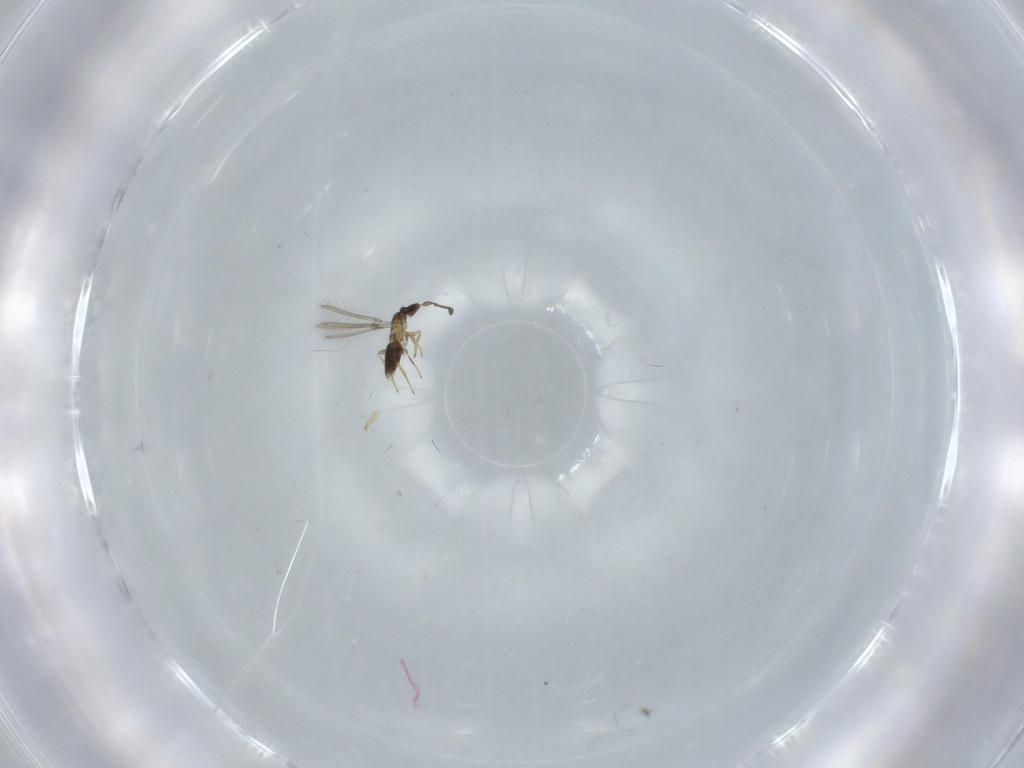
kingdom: Animalia
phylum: Arthropoda
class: Insecta
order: Hymenoptera
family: Mymaridae
